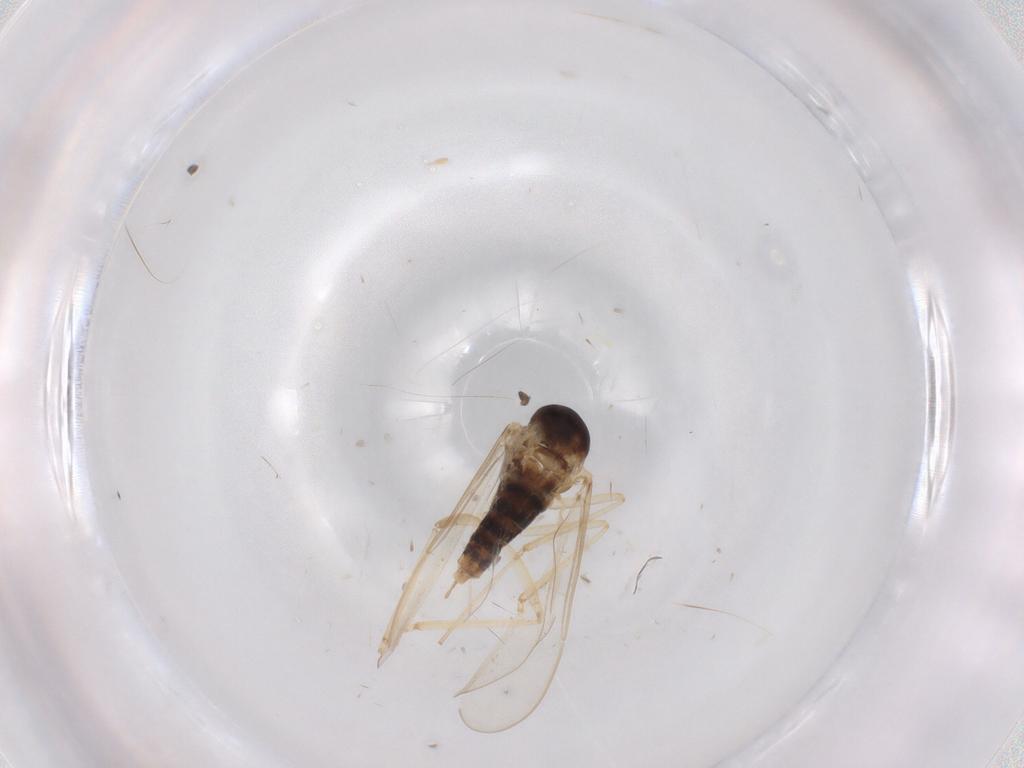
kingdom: Animalia
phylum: Arthropoda
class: Insecta
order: Diptera
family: Cecidomyiidae
